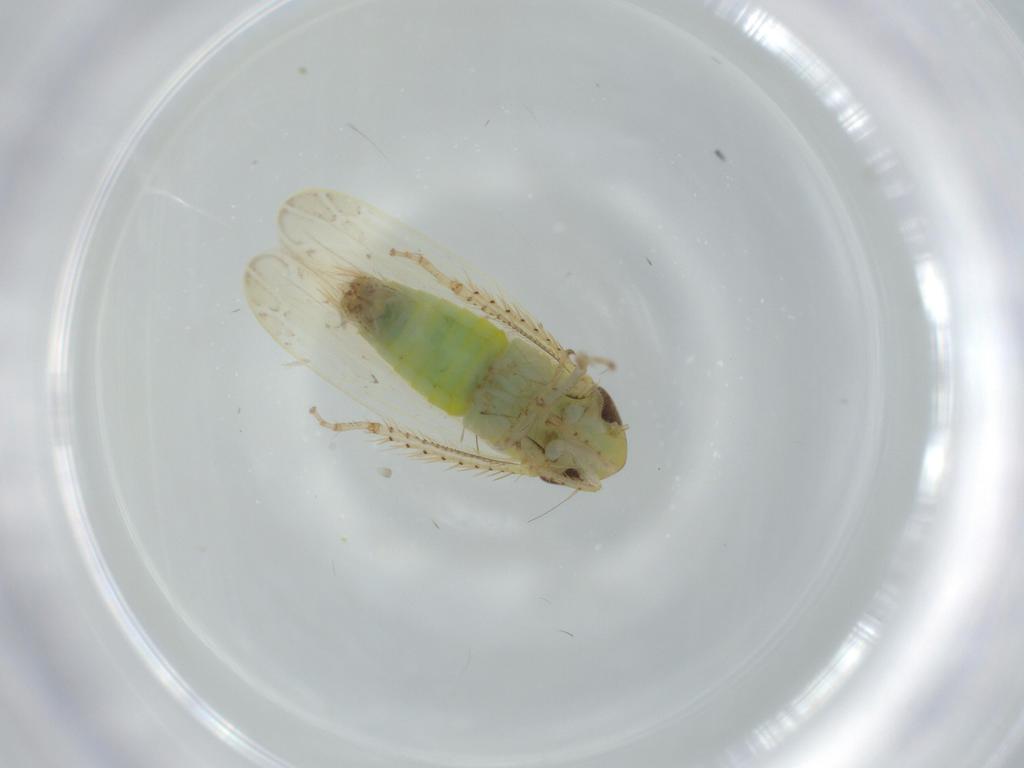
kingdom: Animalia
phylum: Arthropoda
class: Insecta
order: Hemiptera
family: Cicadellidae
